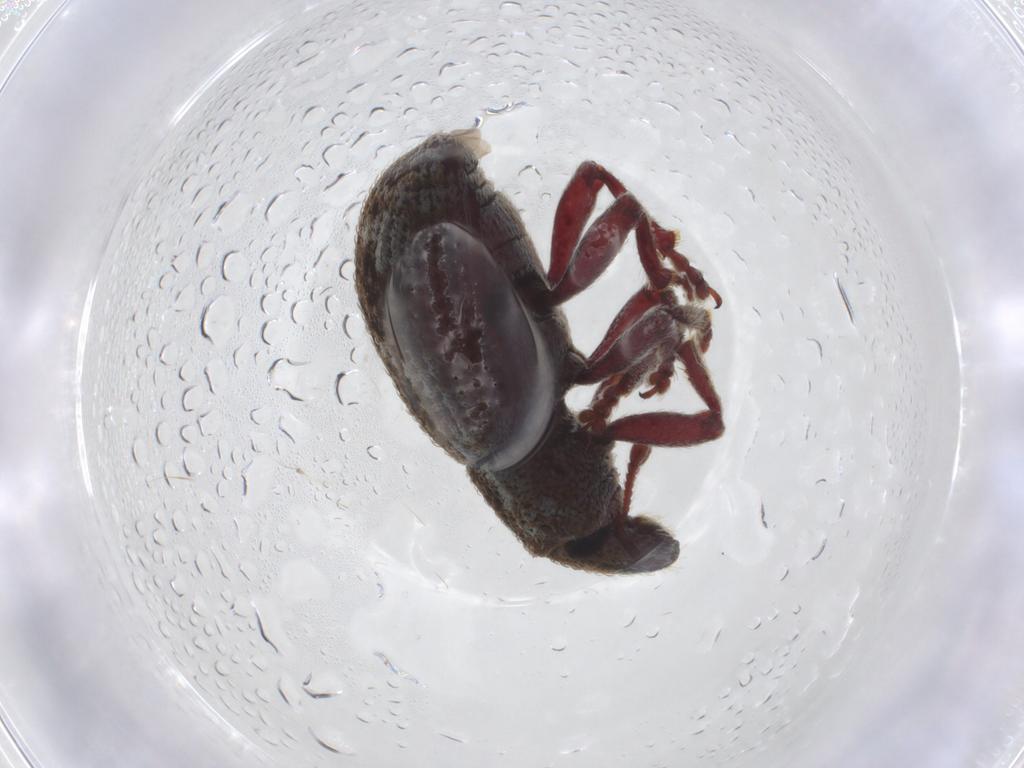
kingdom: Animalia
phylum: Arthropoda
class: Insecta
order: Coleoptera
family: Curculionidae
